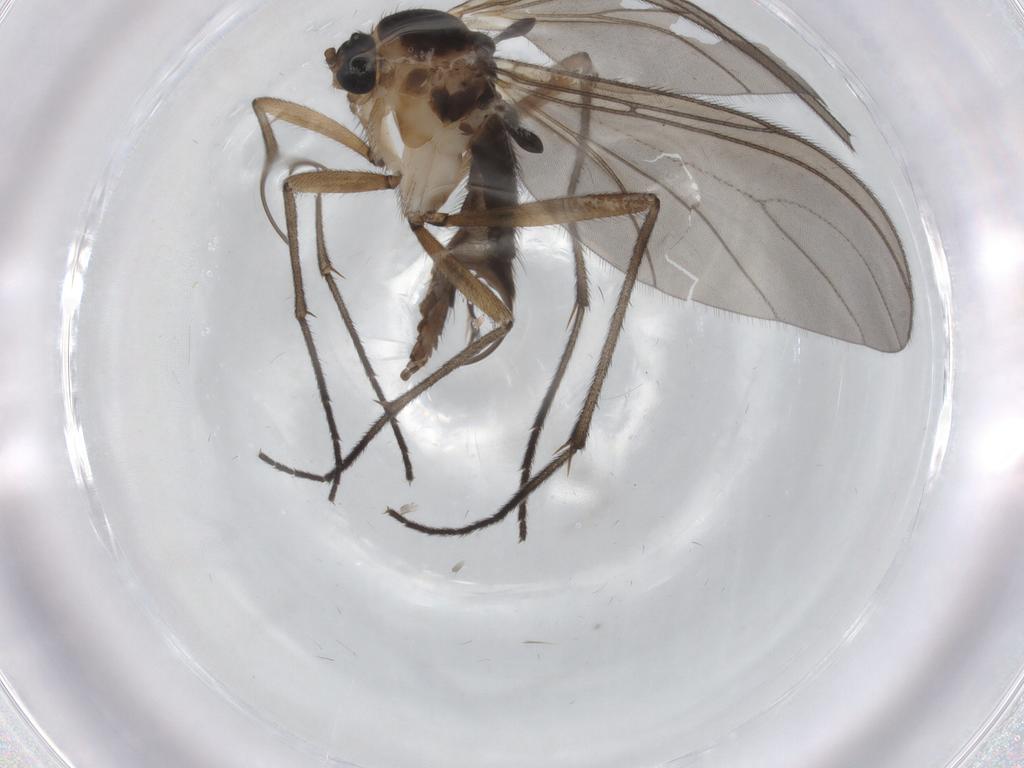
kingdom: Animalia
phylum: Arthropoda
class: Insecta
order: Diptera
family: Sciaridae
